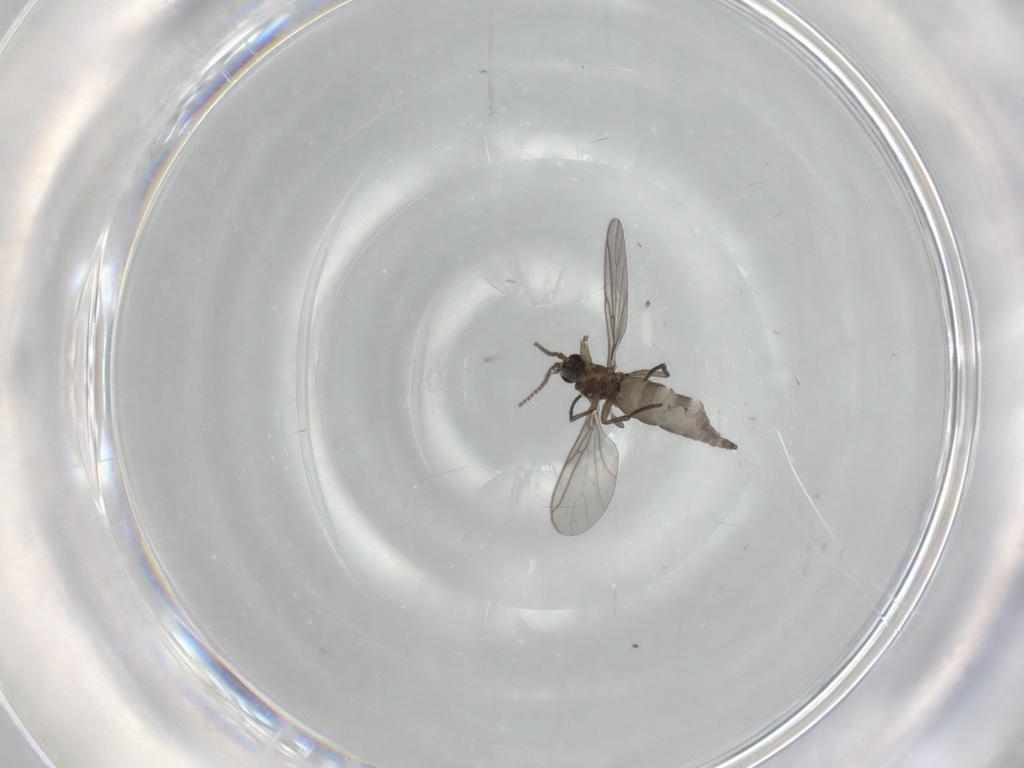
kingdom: Animalia
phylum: Arthropoda
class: Insecta
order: Diptera
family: Sciaridae
